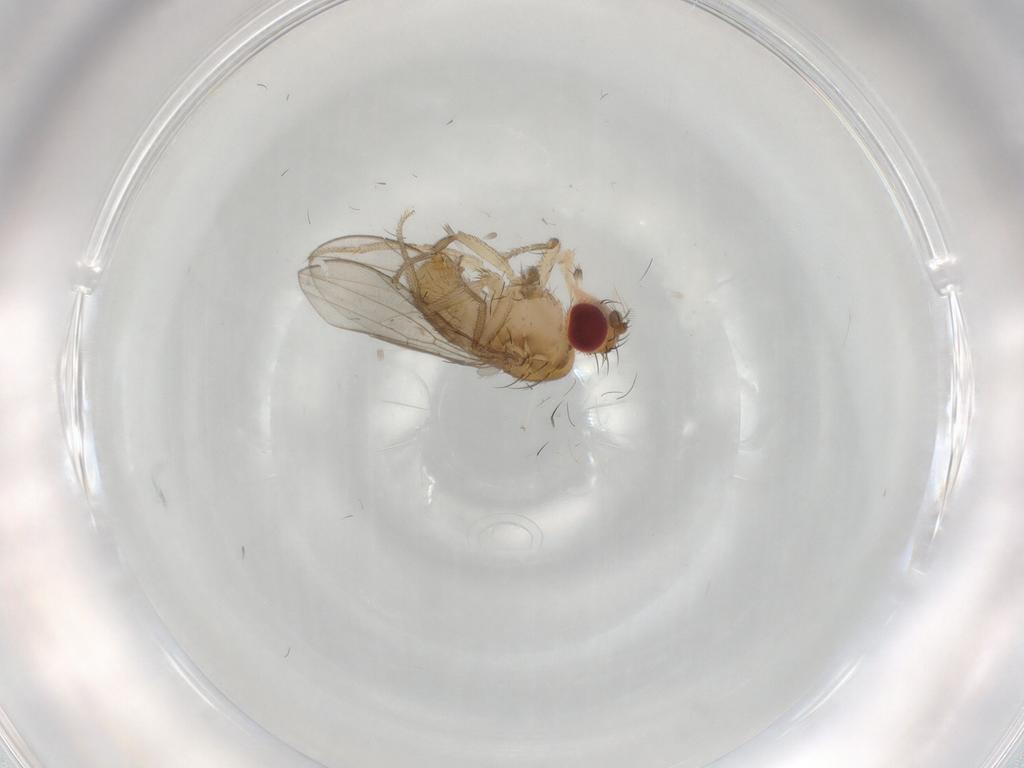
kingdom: Animalia
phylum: Arthropoda
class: Insecta
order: Diptera
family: Drosophilidae
